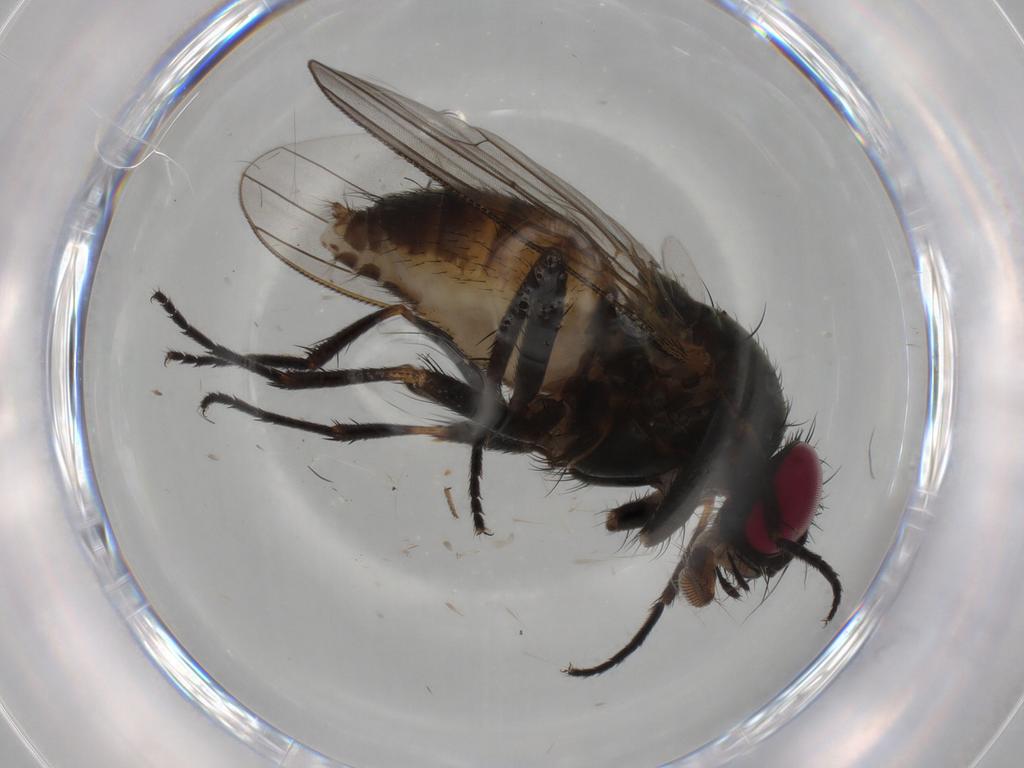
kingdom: Animalia
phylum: Arthropoda
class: Insecta
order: Diptera
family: Fannia
